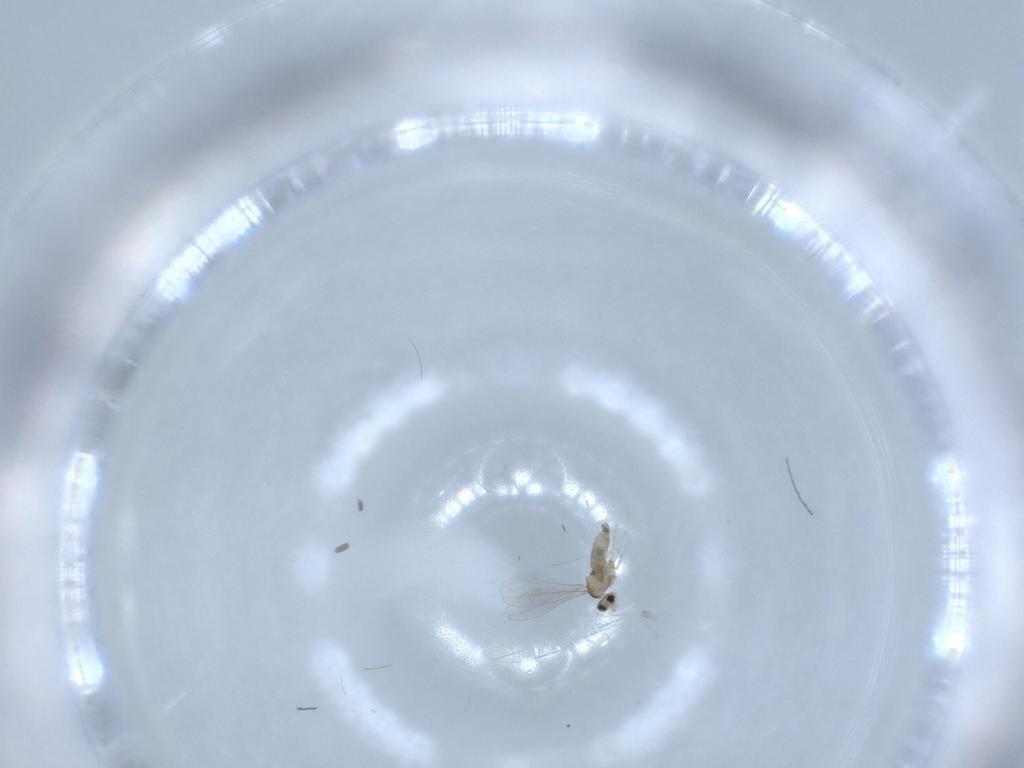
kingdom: Animalia
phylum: Arthropoda
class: Insecta
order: Diptera
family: Cecidomyiidae
